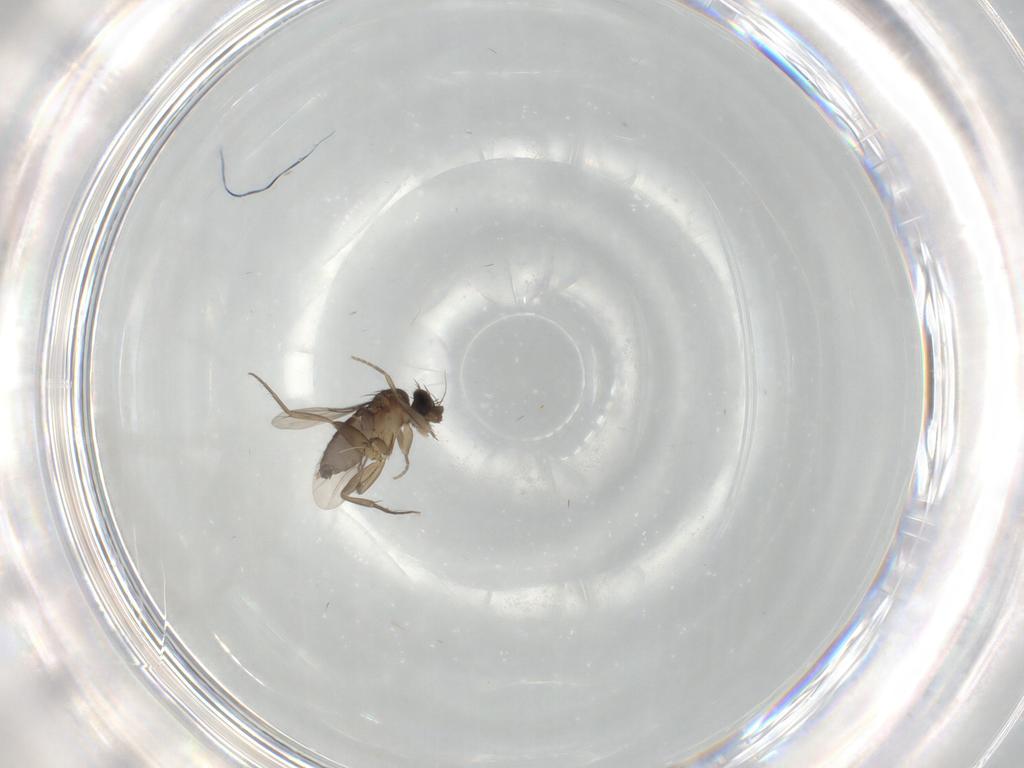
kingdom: Animalia
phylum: Arthropoda
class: Insecta
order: Diptera
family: Phoridae
